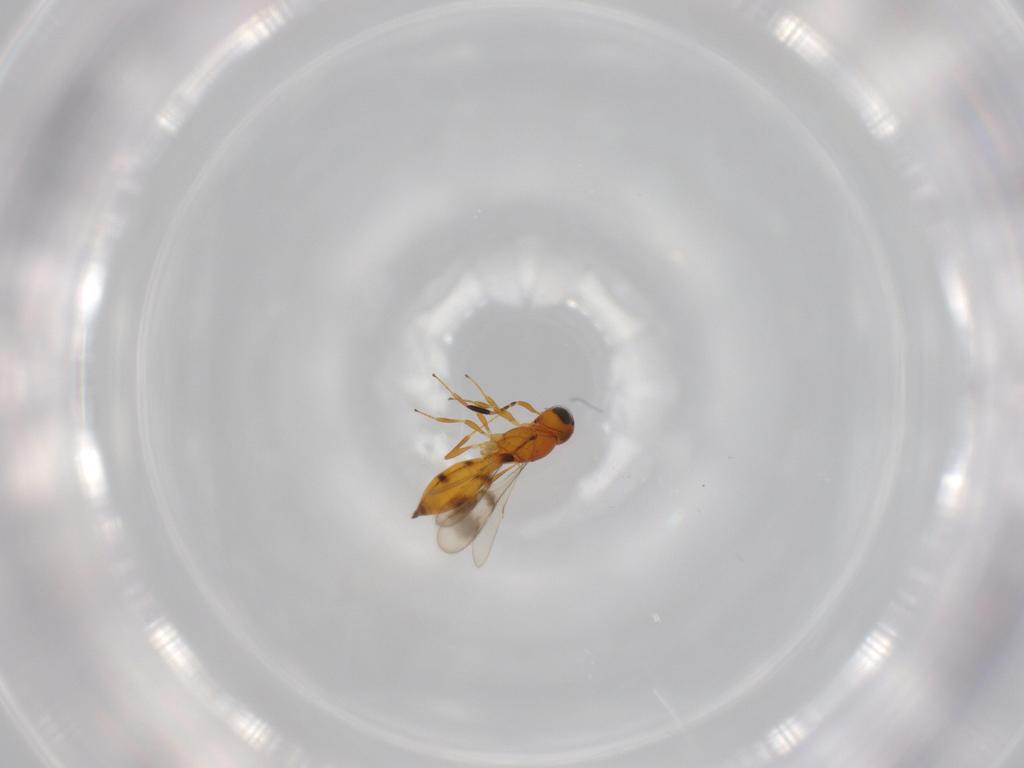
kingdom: Animalia
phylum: Arthropoda
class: Insecta
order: Hymenoptera
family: Scelionidae
